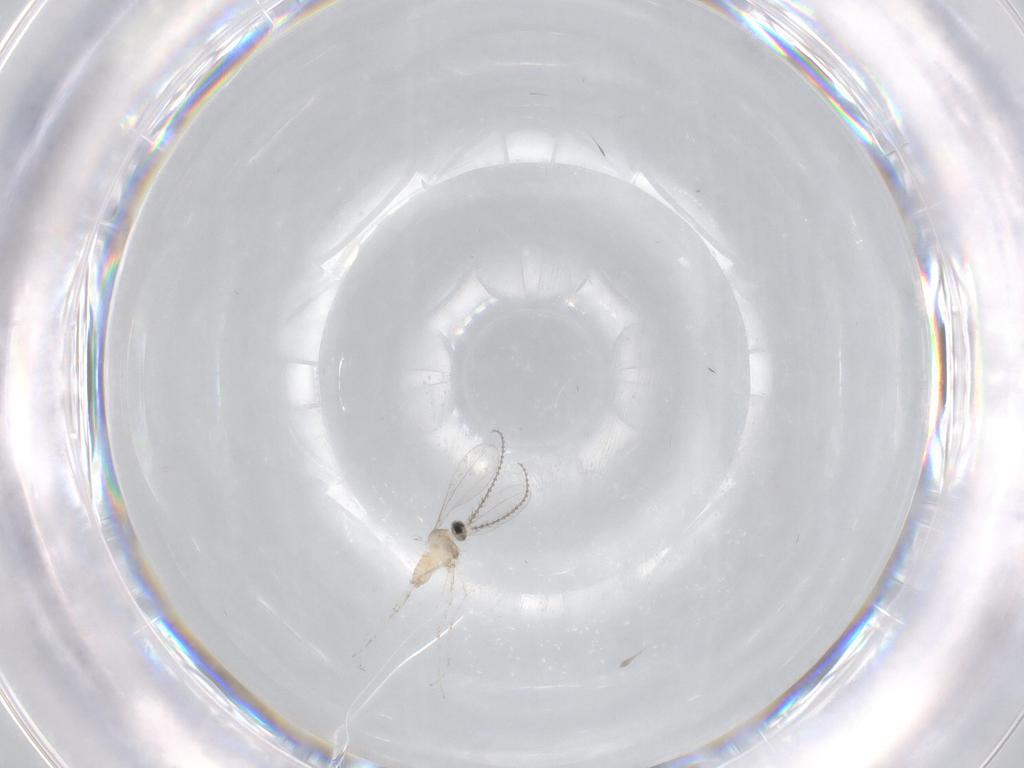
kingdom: Animalia
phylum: Arthropoda
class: Insecta
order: Diptera
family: Cecidomyiidae
